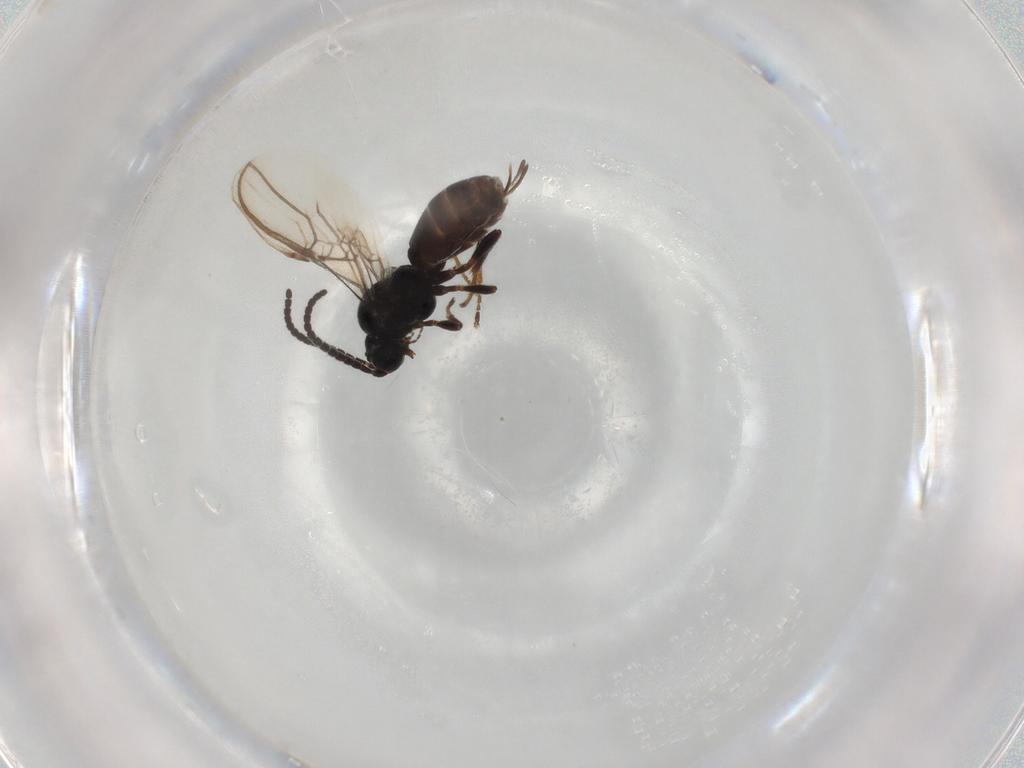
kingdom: Animalia
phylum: Arthropoda
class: Insecta
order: Hymenoptera
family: Braconidae
